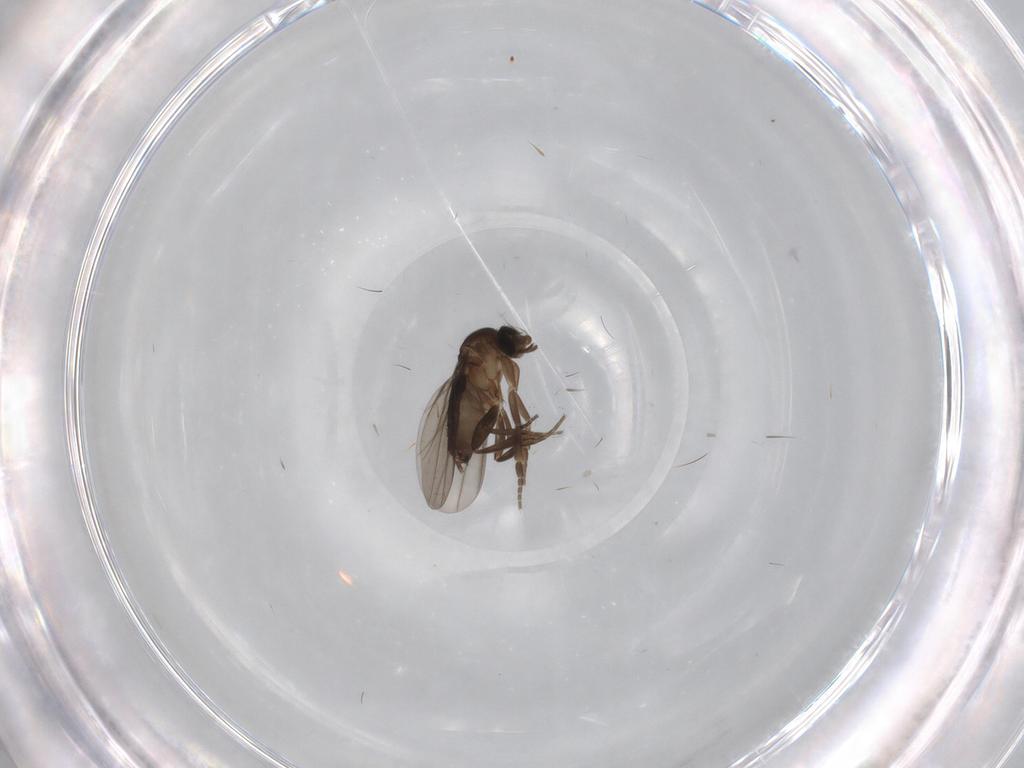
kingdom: Animalia
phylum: Arthropoda
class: Insecta
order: Diptera
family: Phoridae
